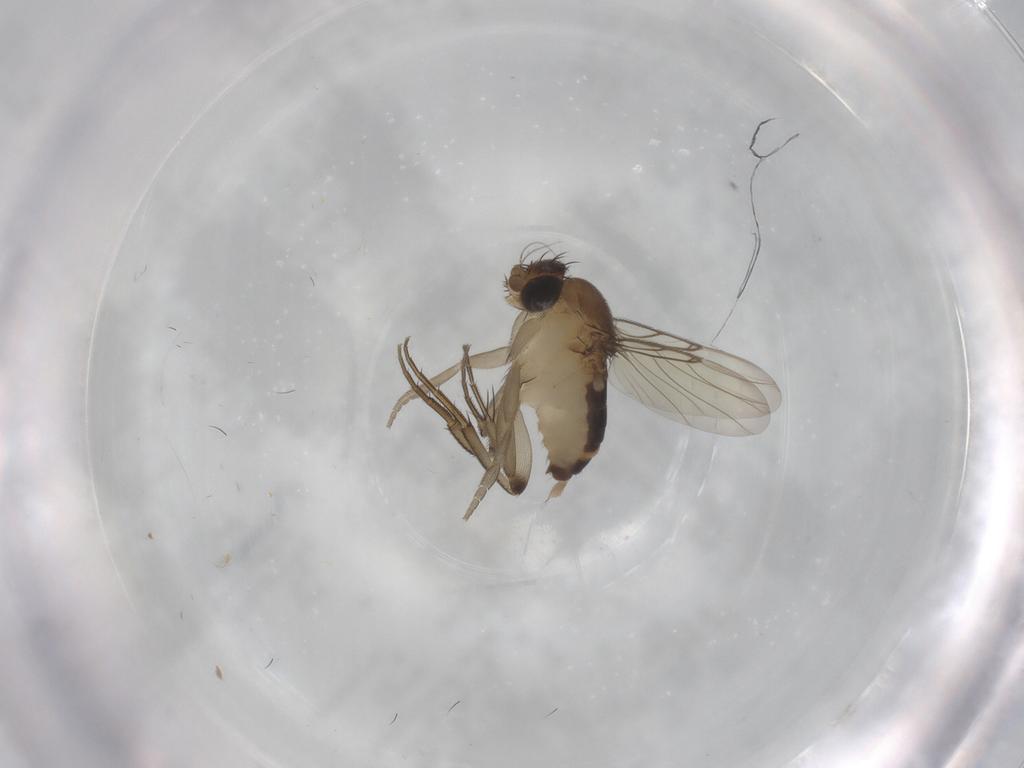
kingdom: Animalia
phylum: Arthropoda
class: Insecta
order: Diptera
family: Phoridae
